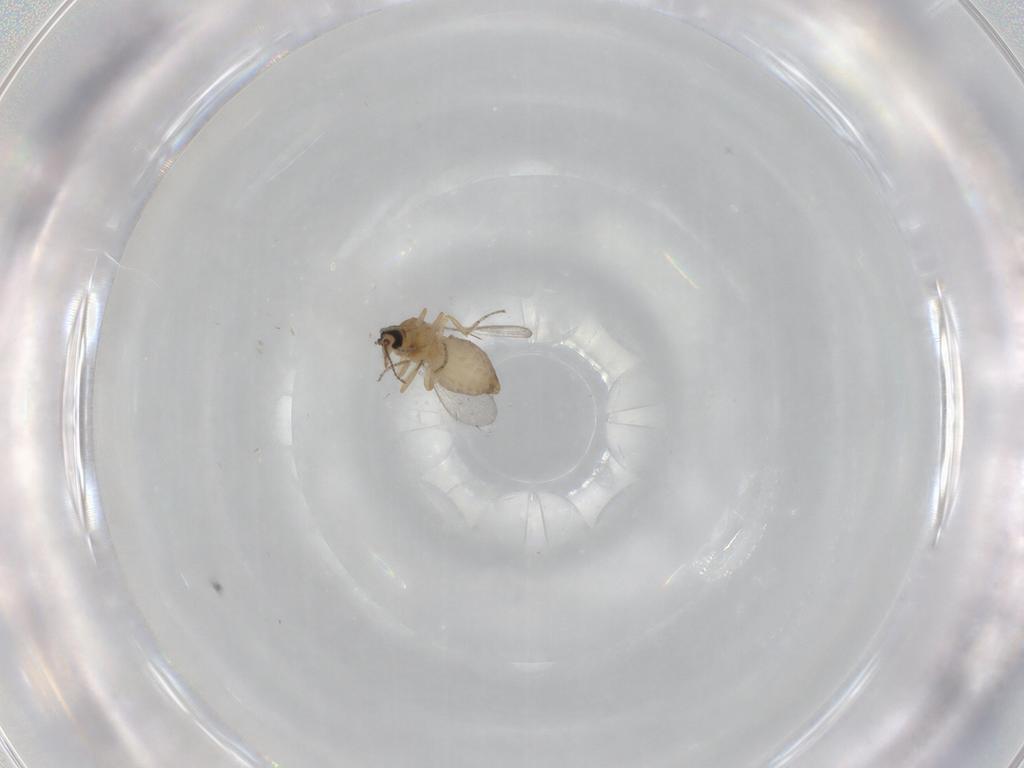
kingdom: Animalia
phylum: Arthropoda
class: Insecta
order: Diptera
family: Ceratopogonidae
